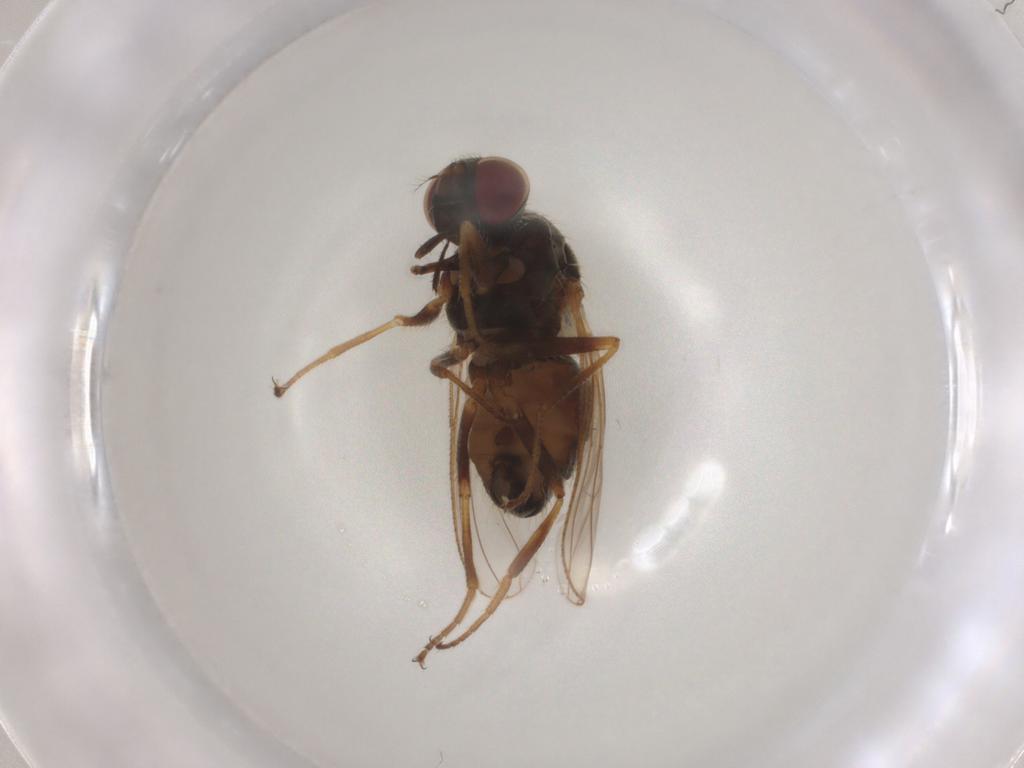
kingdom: Animalia
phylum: Arthropoda
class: Insecta
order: Diptera
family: Muscidae
